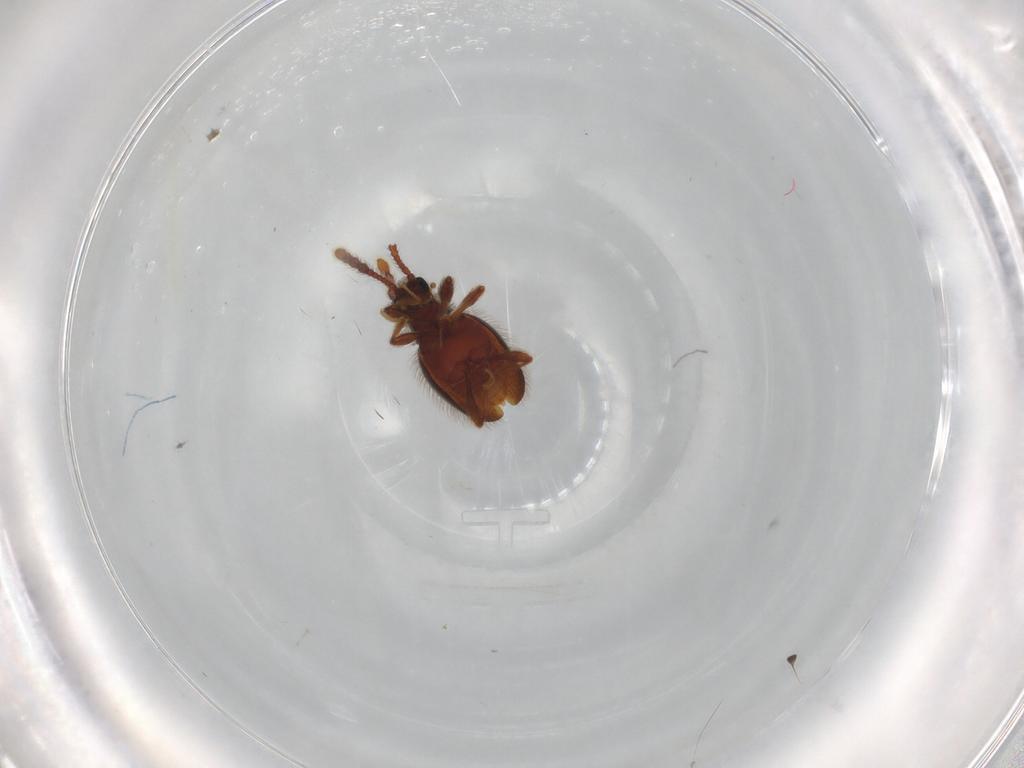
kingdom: Animalia
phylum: Arthropoda
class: Insecta
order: Coleoptera
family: Staphylinidae
